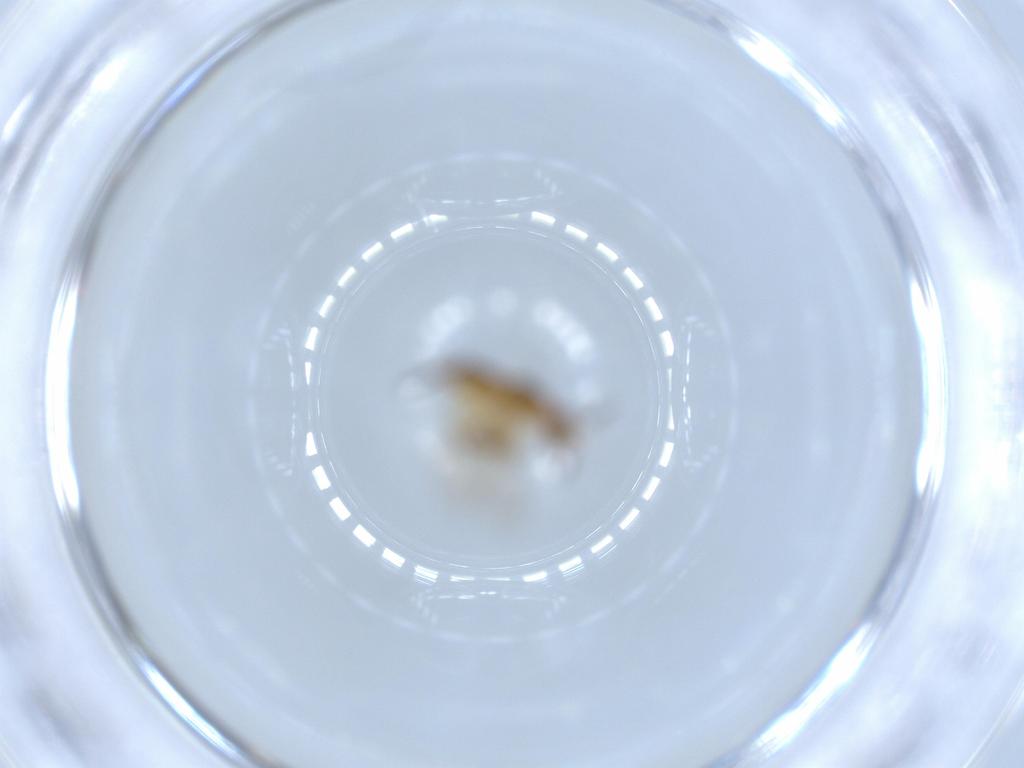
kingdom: Animalia
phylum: Arthropoda
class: Insecta
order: Hymenoptera
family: Torymidae
